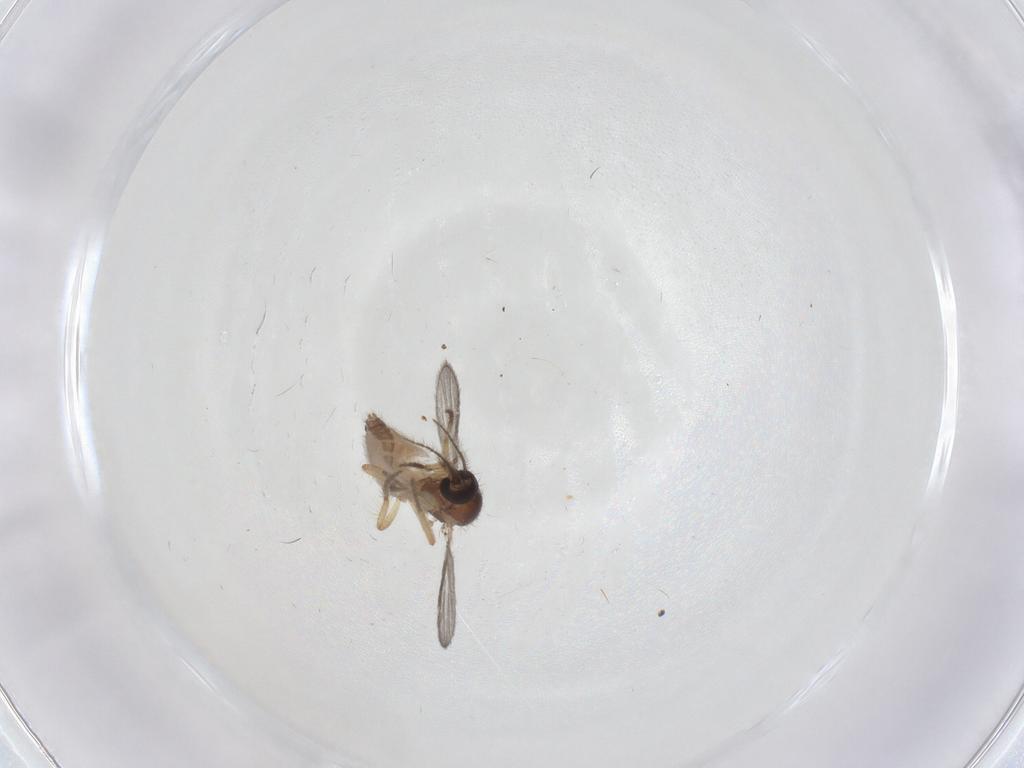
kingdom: Animalia
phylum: Arthropoda
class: Insecta
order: Diptera
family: Ceratopogonidae
